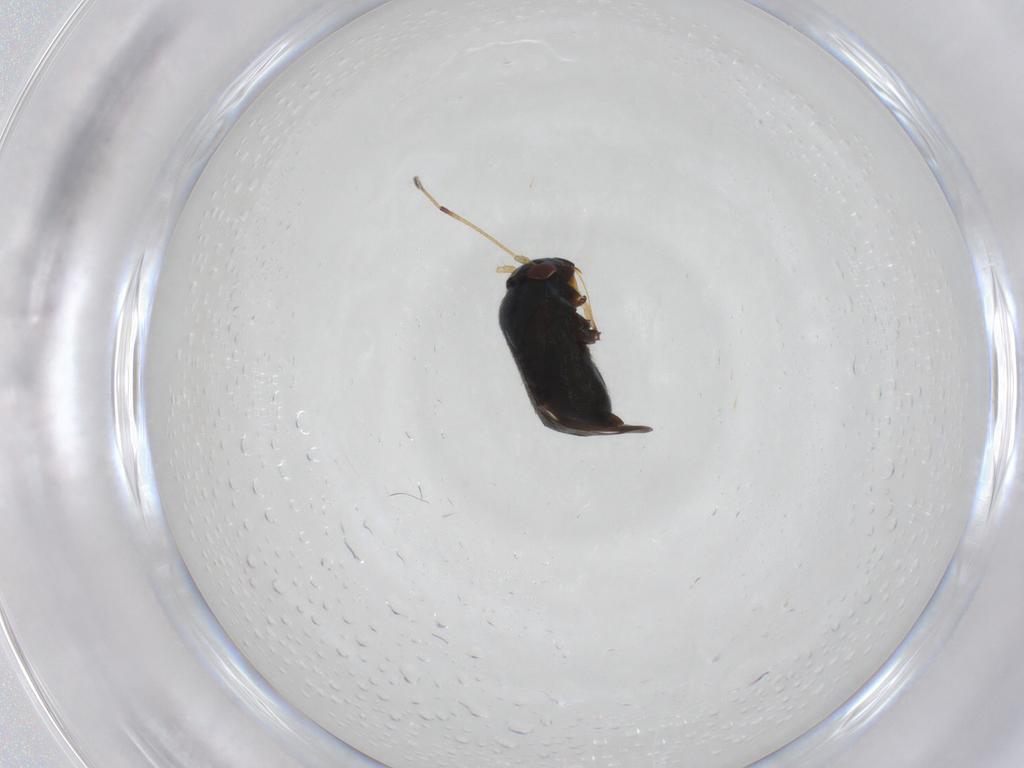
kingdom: Animalia
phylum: Arthropoda
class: Insecta
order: Hemiptera
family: Miridae
